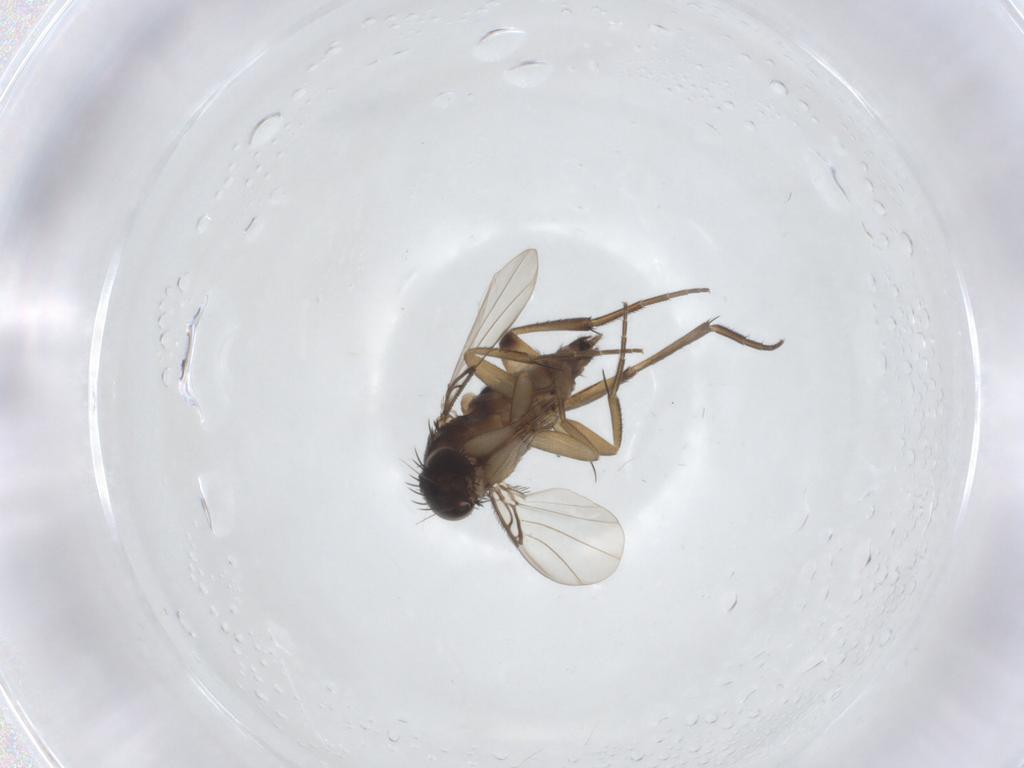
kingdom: Animalia
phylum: Arthropoda
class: Insecta
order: Diptera
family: Phoridae
